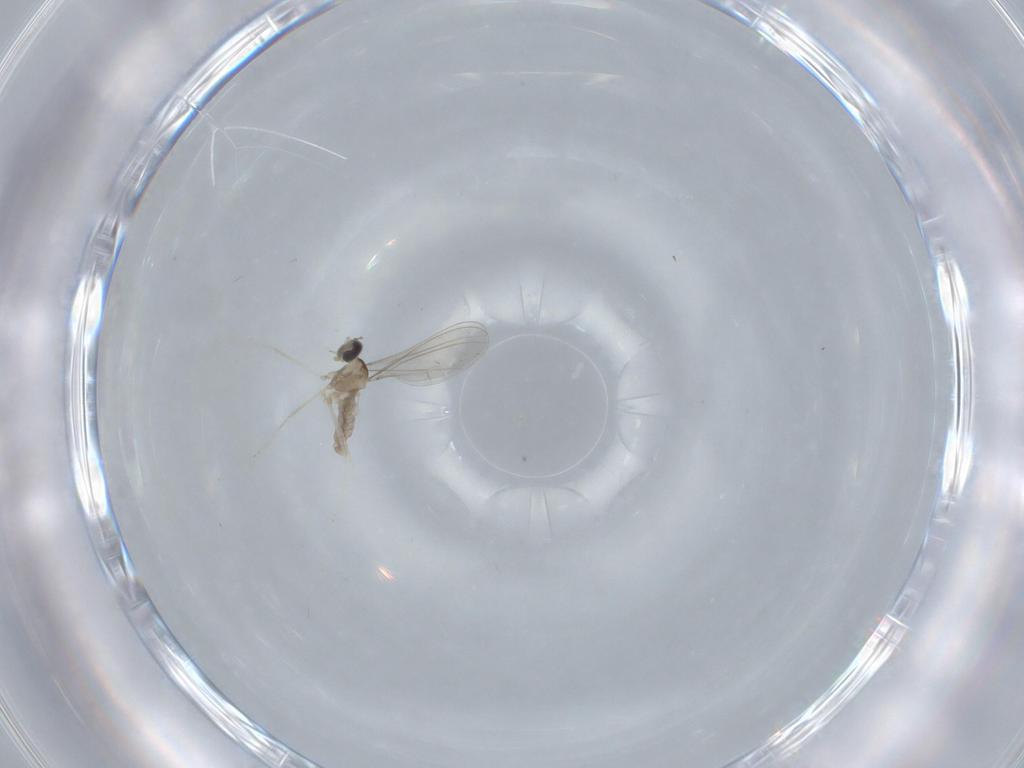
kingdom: Animalia
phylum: Arthropoda
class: Insecta
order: Diptera
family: Cecidomyiidae
